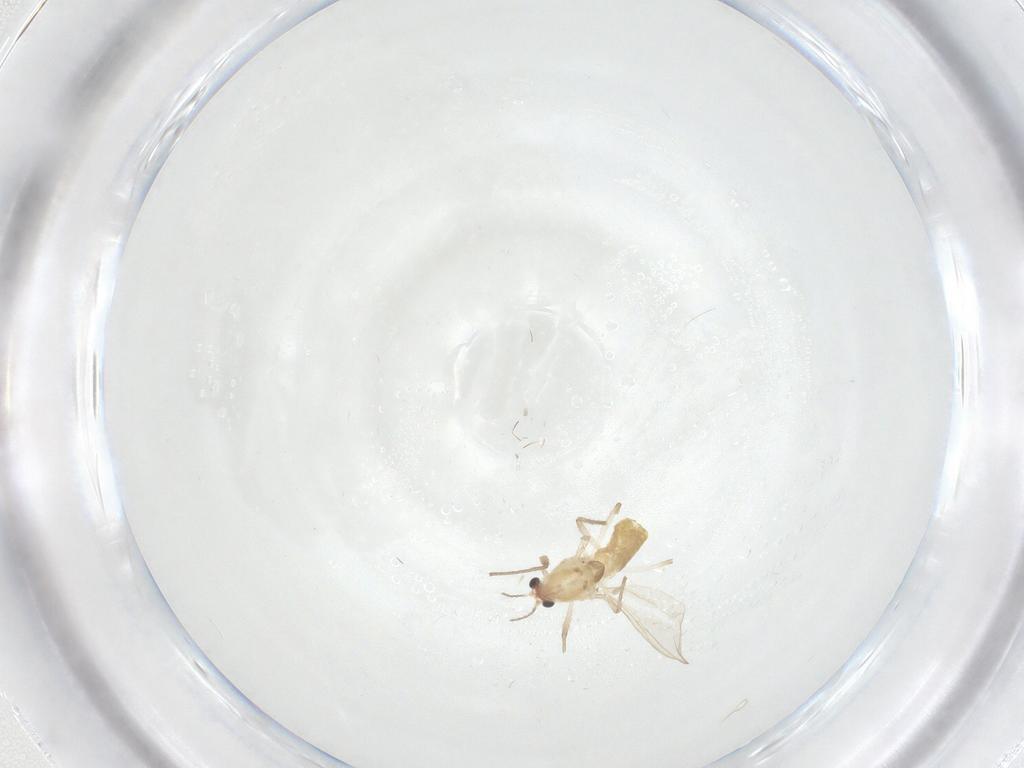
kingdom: Animalia
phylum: Arthropoda
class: Insecta
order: Diptera
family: Chironomidae
